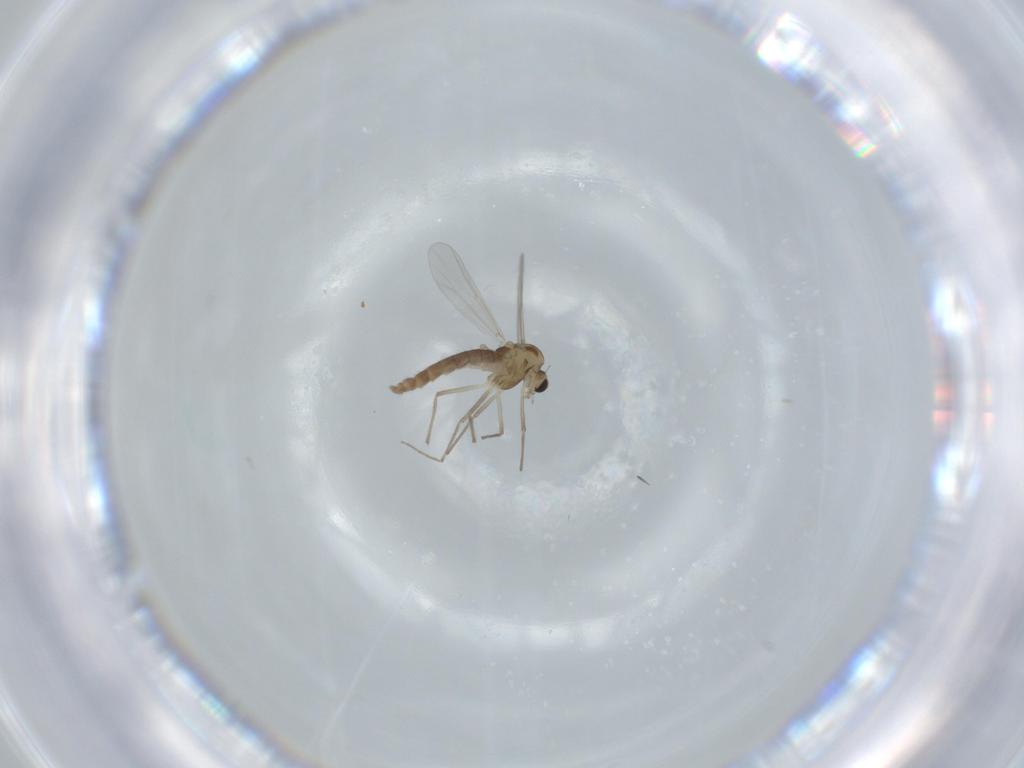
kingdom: Animalia
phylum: Arthropoda
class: Insecta
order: Diptera
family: Chironomidae
